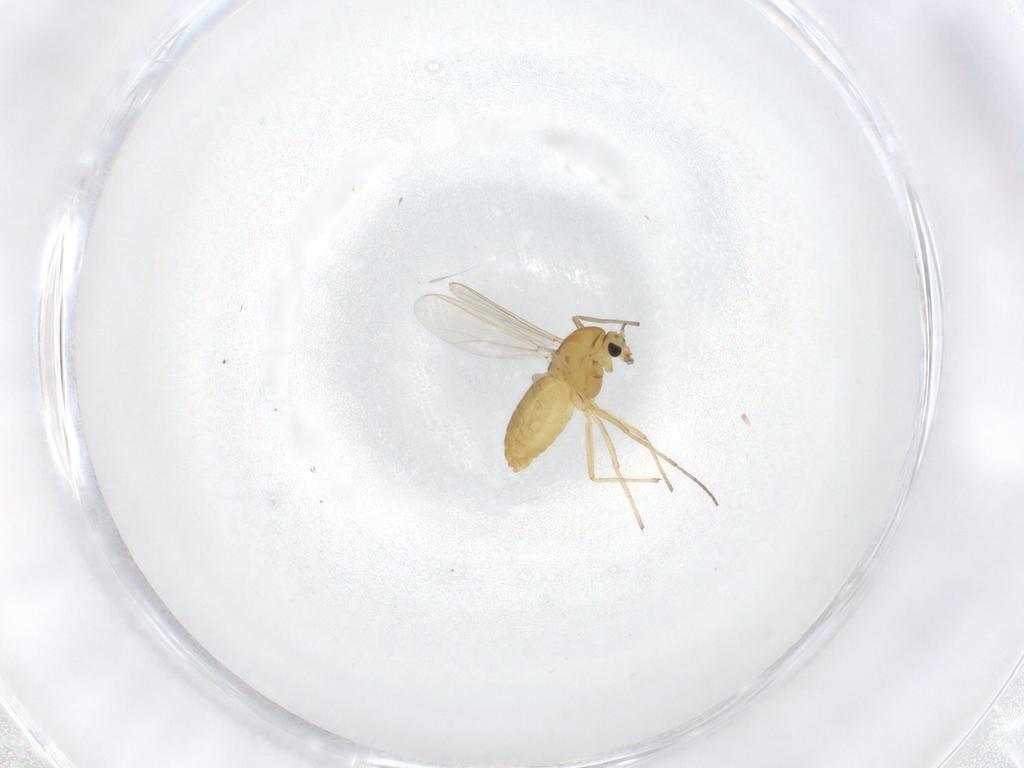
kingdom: Animalia
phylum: Arthropoda
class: Insecta
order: Diptera
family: Chironomidae
